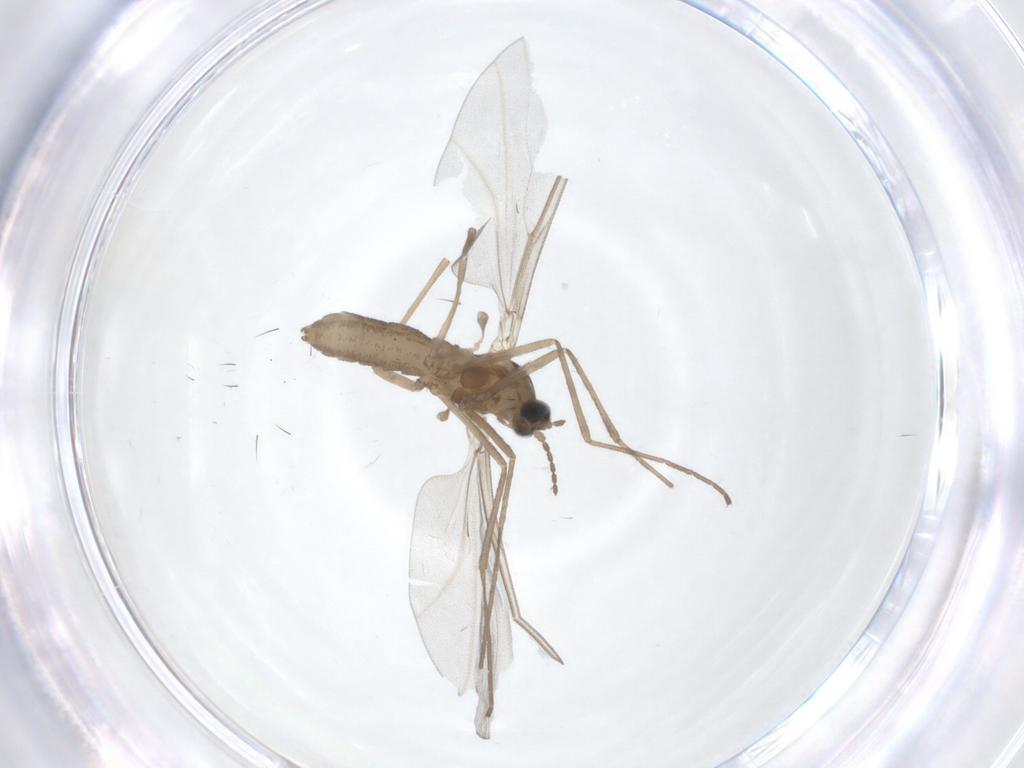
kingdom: Animalia
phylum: Arthropoda
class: Insecta
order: Diptera
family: Cecidomyiidae
